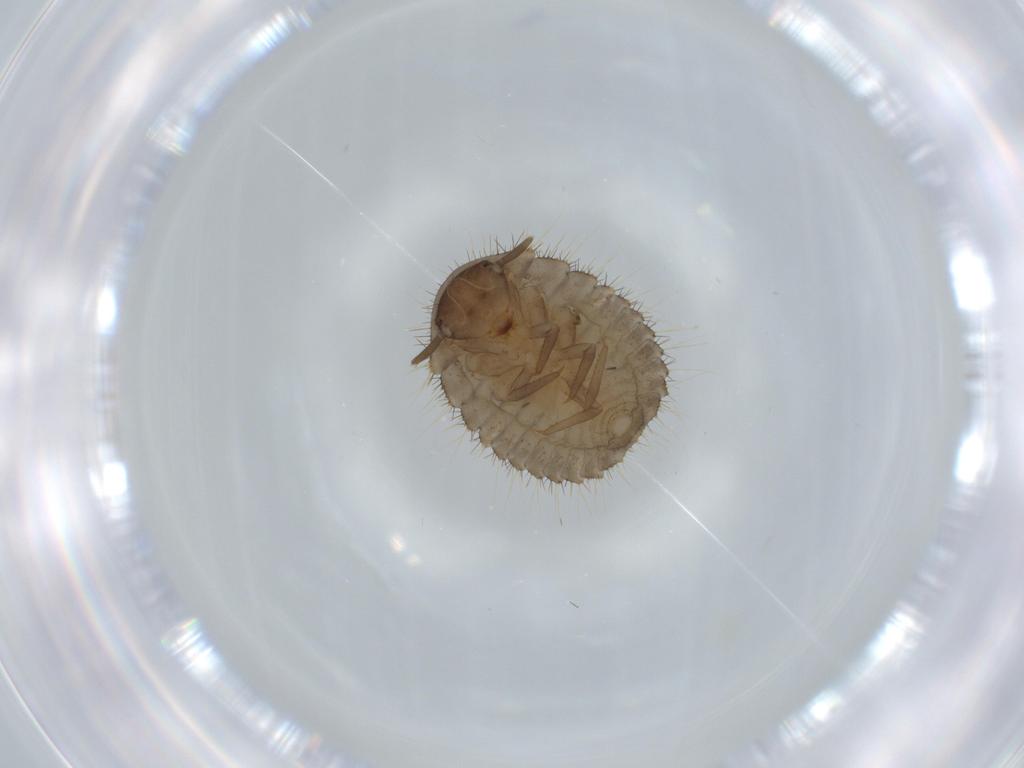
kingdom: Animalia
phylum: Arthropoda
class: Insecta
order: Coleoptera
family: Endomychidae
